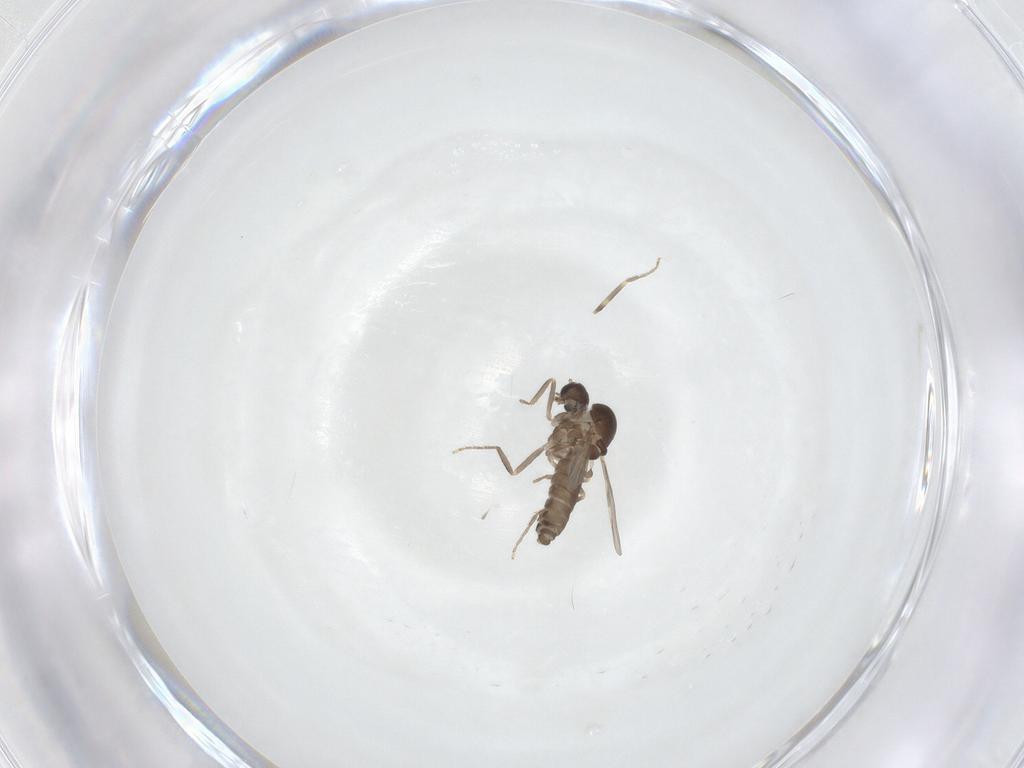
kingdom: Animalia
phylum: Arthropoda
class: Insecta
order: Diptera
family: Ceratopogonidae
